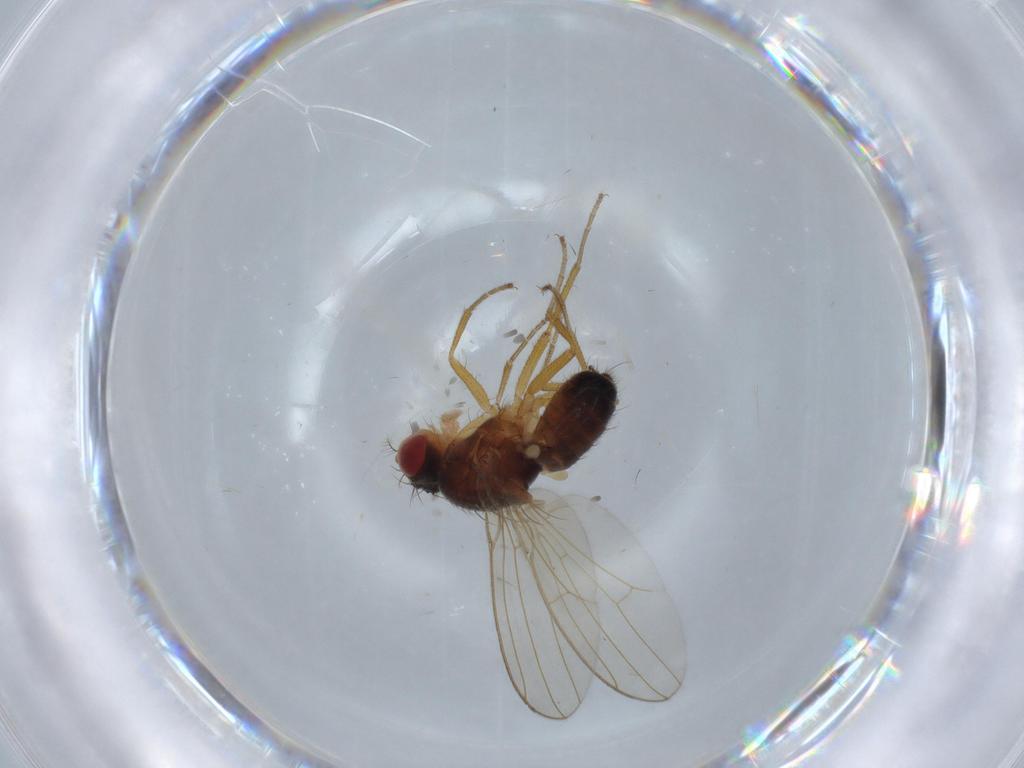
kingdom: Animalia
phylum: Arthropoda
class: Insecta
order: Diptera
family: Drosophilidae
